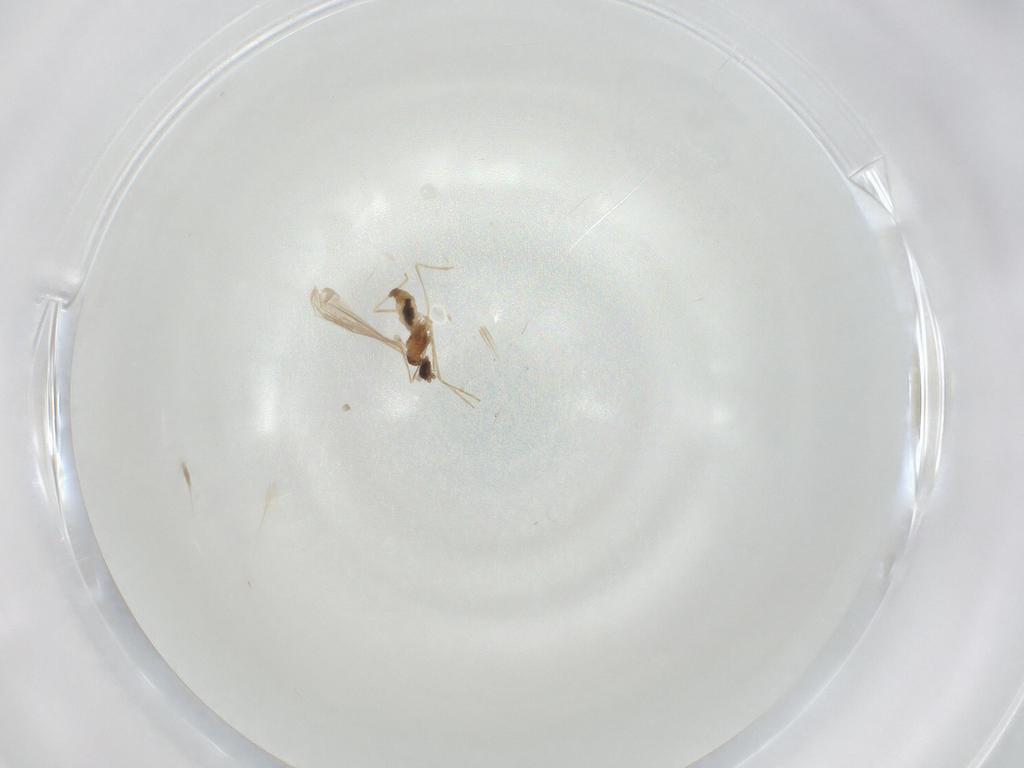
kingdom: Animalia
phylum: Arthropoda
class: Insecta
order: Diptera
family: Cecidomyiidae
